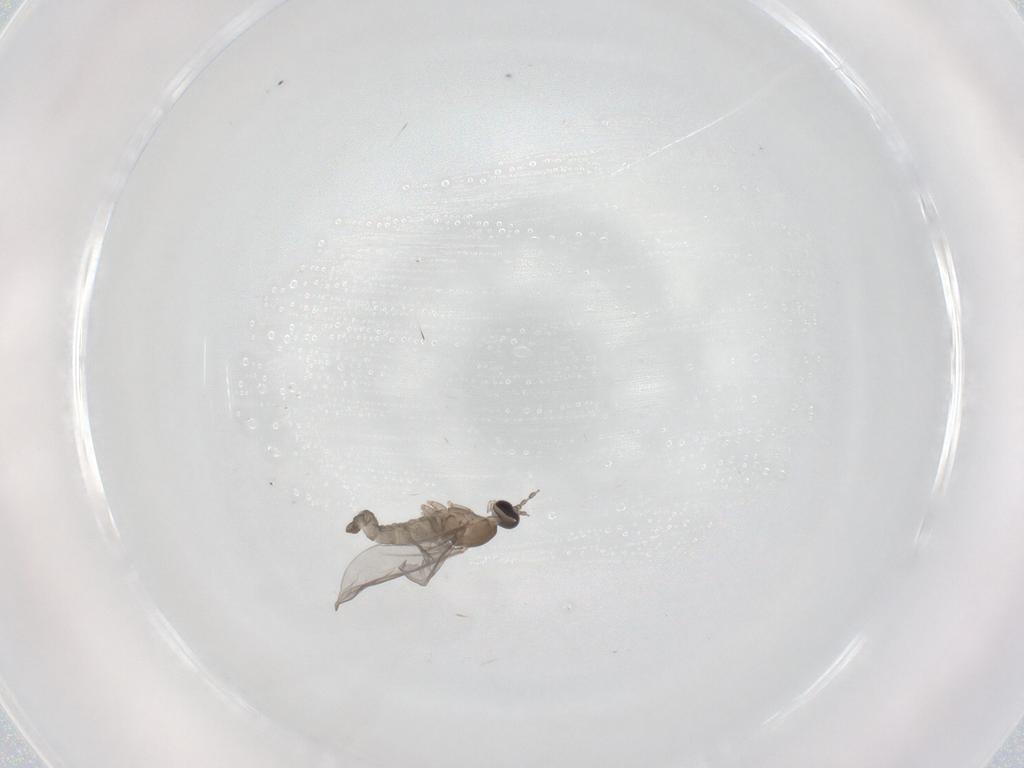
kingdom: Animalia
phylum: Arthropoda
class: Insecta
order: Diptera
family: Cecidomyiidae
